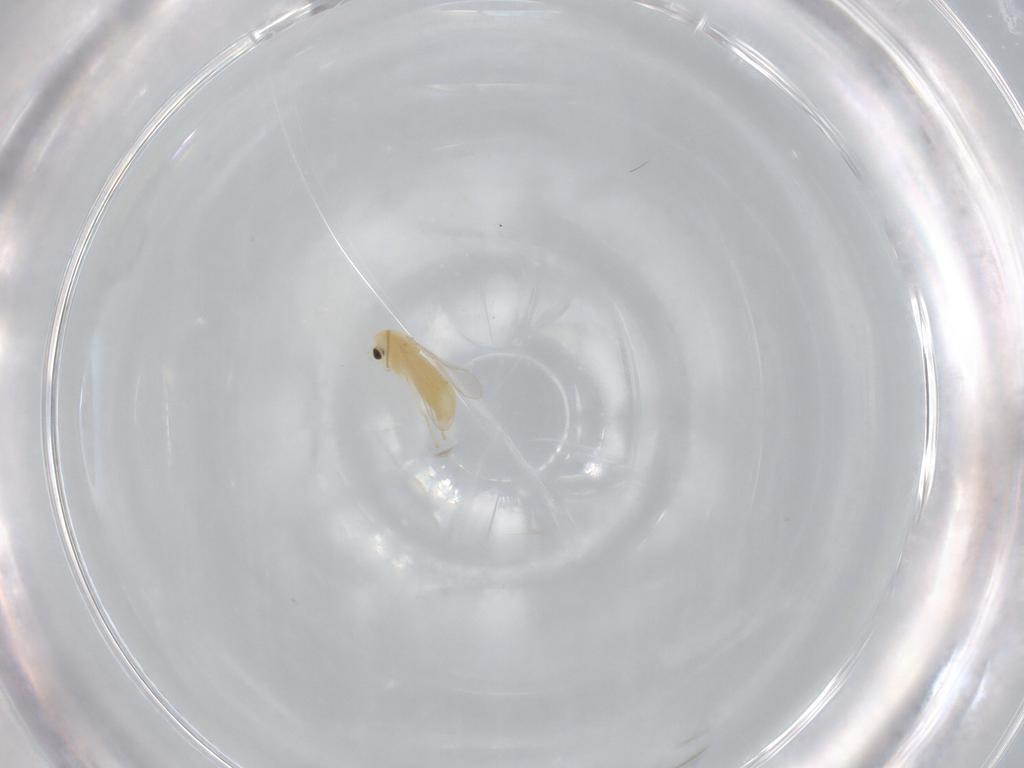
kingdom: Animalia
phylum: Arthropoda
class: Insecta
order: Diptera
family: Chironomidae
